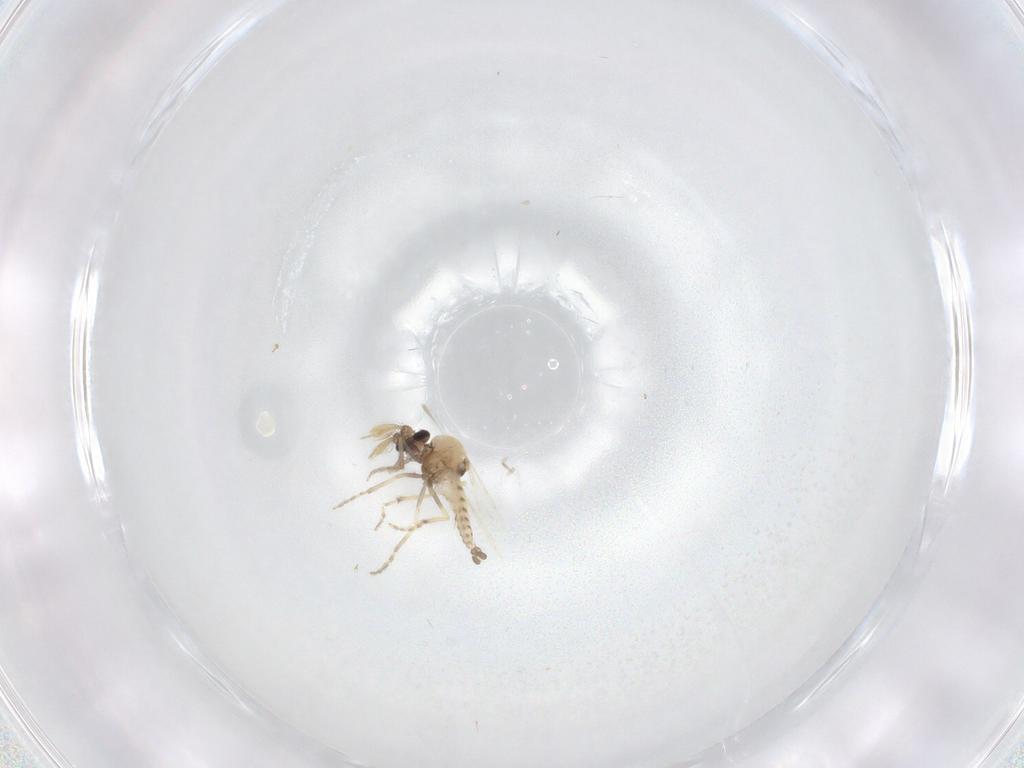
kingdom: Animalia
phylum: Arthropoda
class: Insecta
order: Diptera
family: Ceratopogonidae
